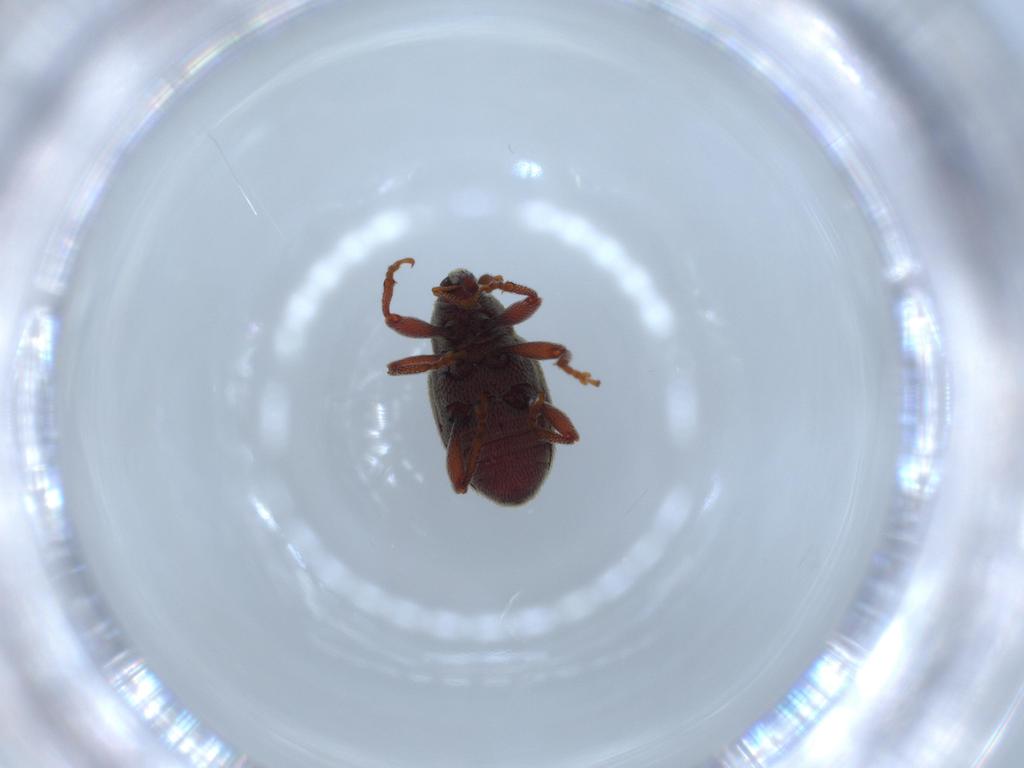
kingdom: Animalia
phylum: Arthropoda
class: Insecta
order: Coleoptera
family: Curculionidae
